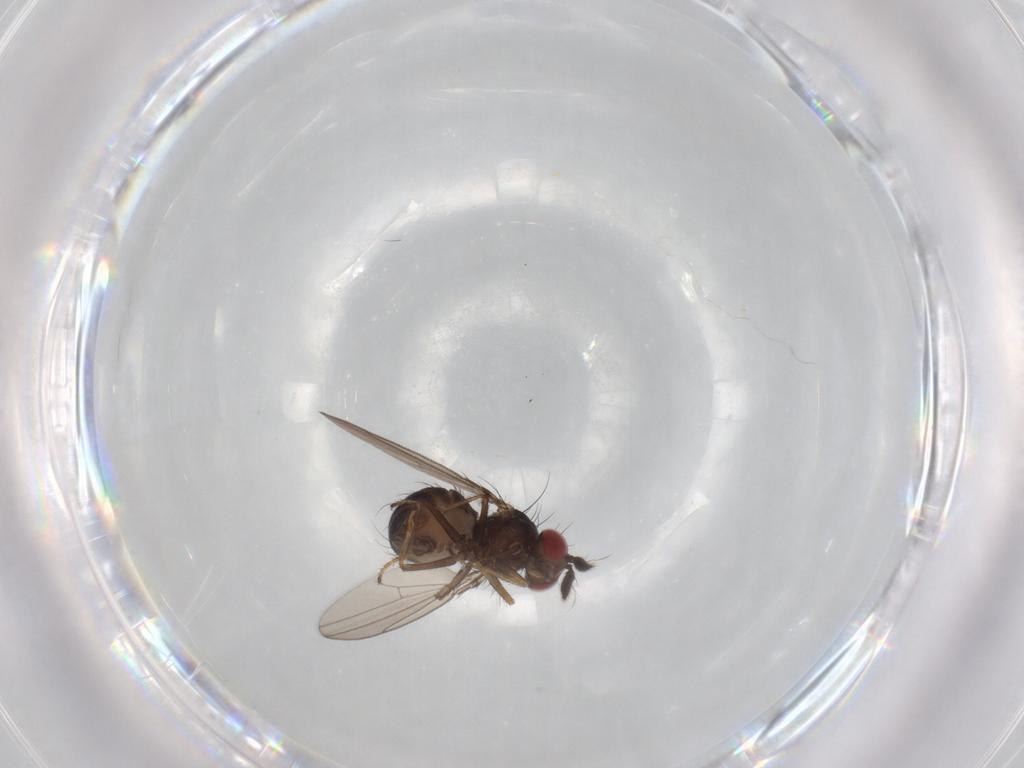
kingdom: Animalia
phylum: Arthropoda
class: Insecta
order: Diptera
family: Ephydridae
